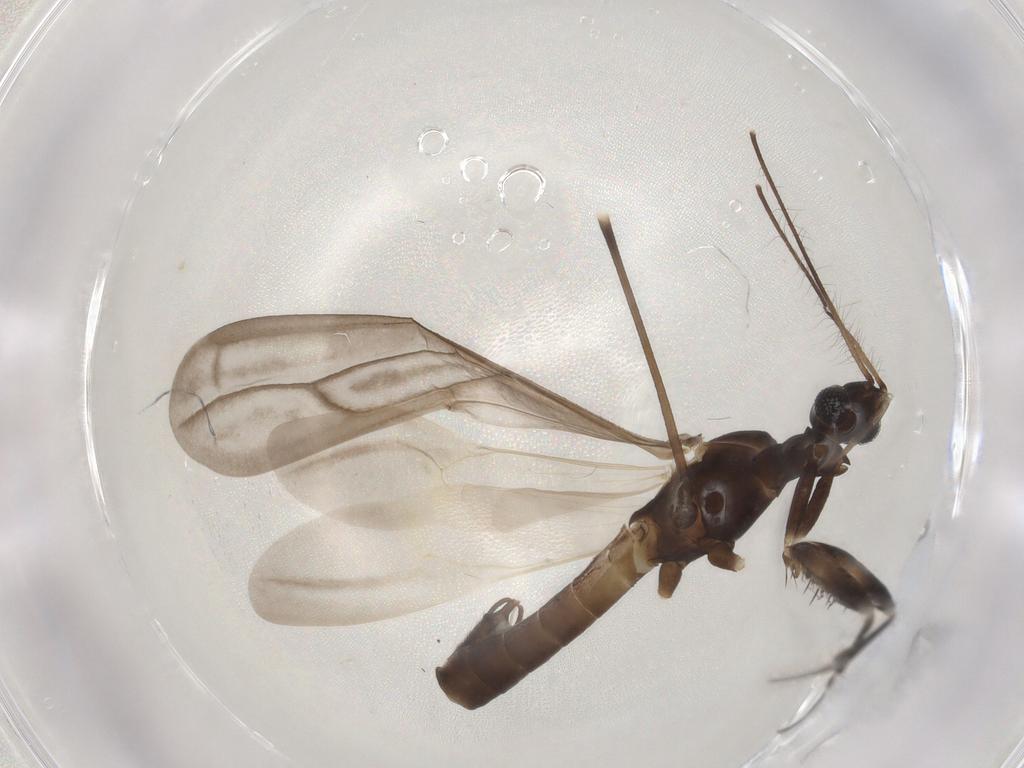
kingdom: Animalia
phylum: Arthropoda
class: Insecta
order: Hemiptera
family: Reduviidae
